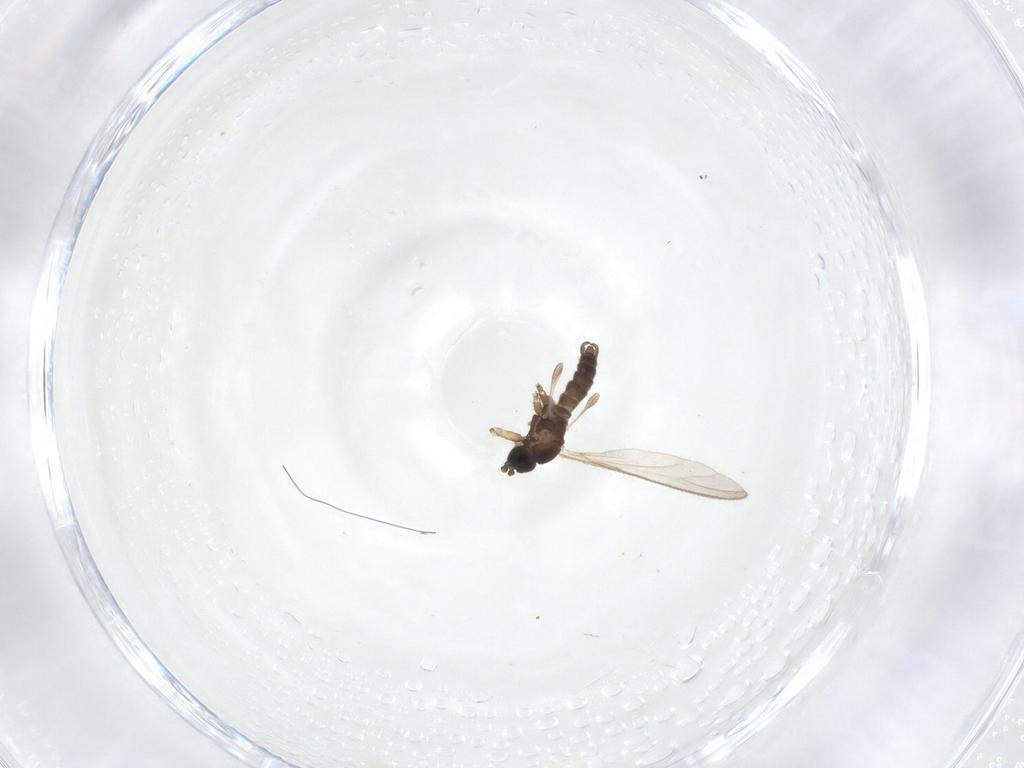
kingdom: Animalia
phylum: Arthropoda
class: Insecta
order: Diptera
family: Sciaridae
